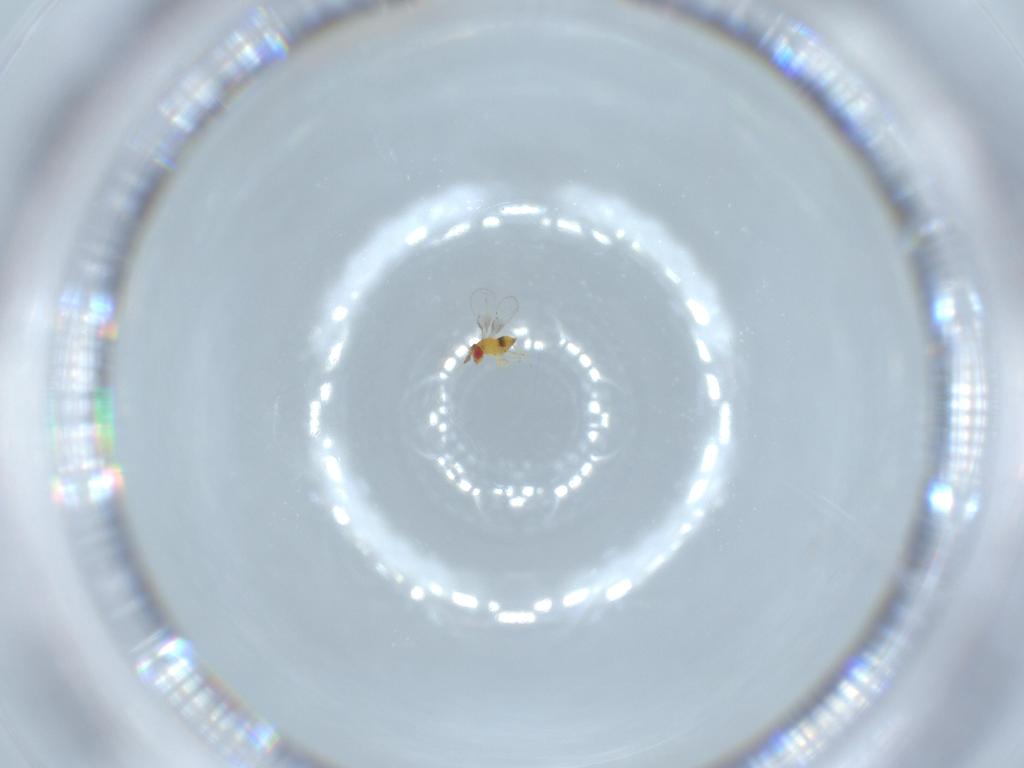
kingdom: Animalia
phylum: Arthropoda
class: Insecta
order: Hymenoptera
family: Trichogrammatidae
